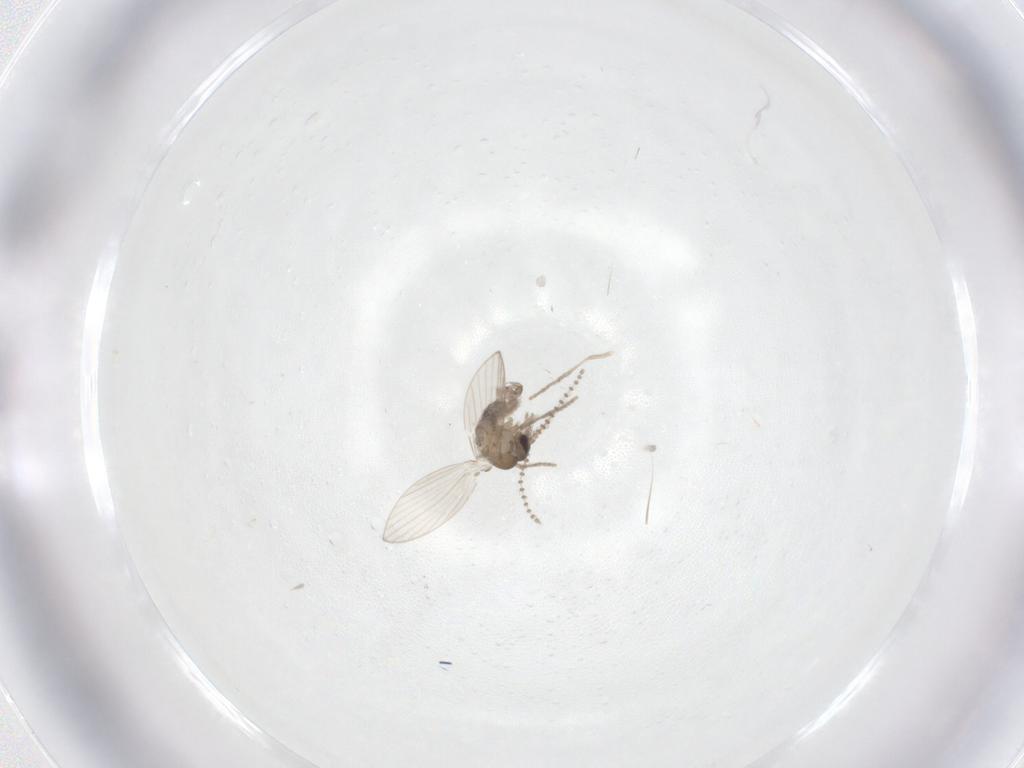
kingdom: Animalia
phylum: Arthropoda
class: Insecta
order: Diptera
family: Psychodidae
